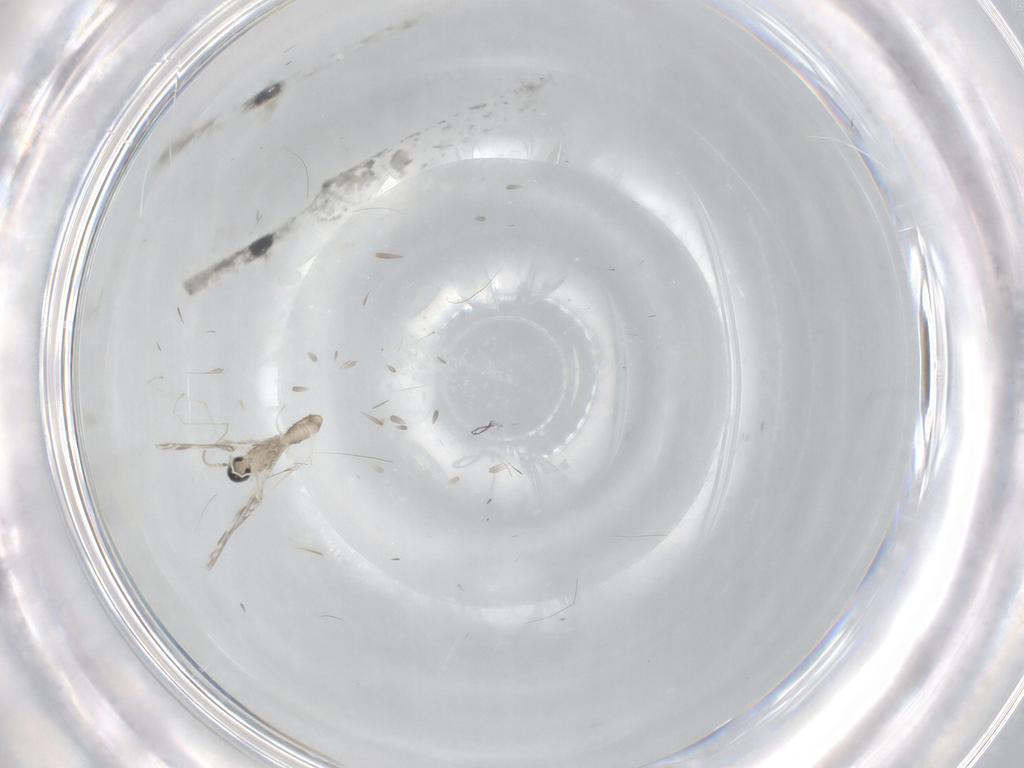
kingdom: Animalia
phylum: Arthropoda
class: Insecta
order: Diptera
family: Cecidomyiidae
